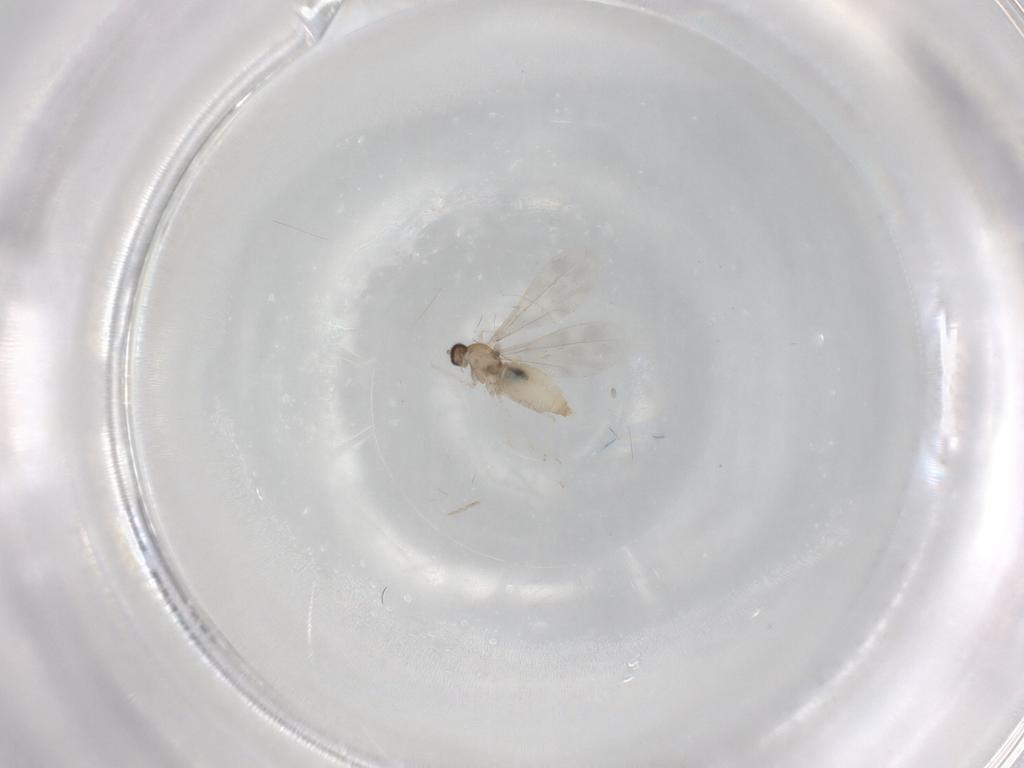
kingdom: Animalia
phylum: Arthropoda
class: Insecta
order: Diptera
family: Cecidomyiidae
